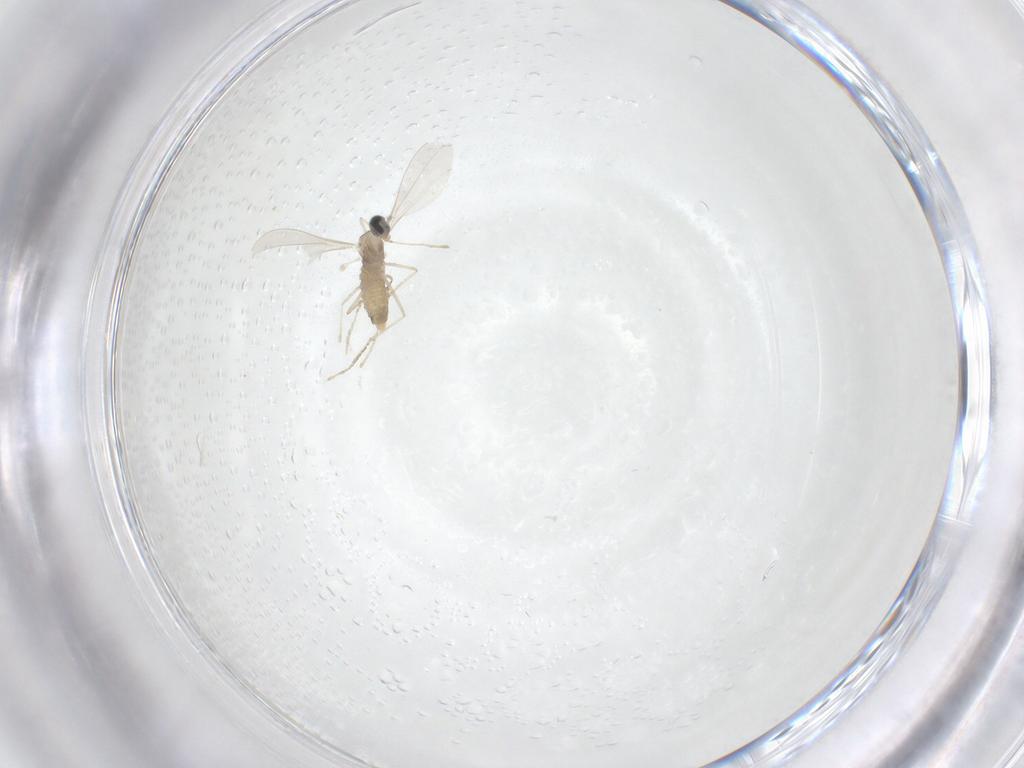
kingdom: Animalia
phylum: Arthropoda
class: Insecta
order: Diptera
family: Cecidomyiidae
